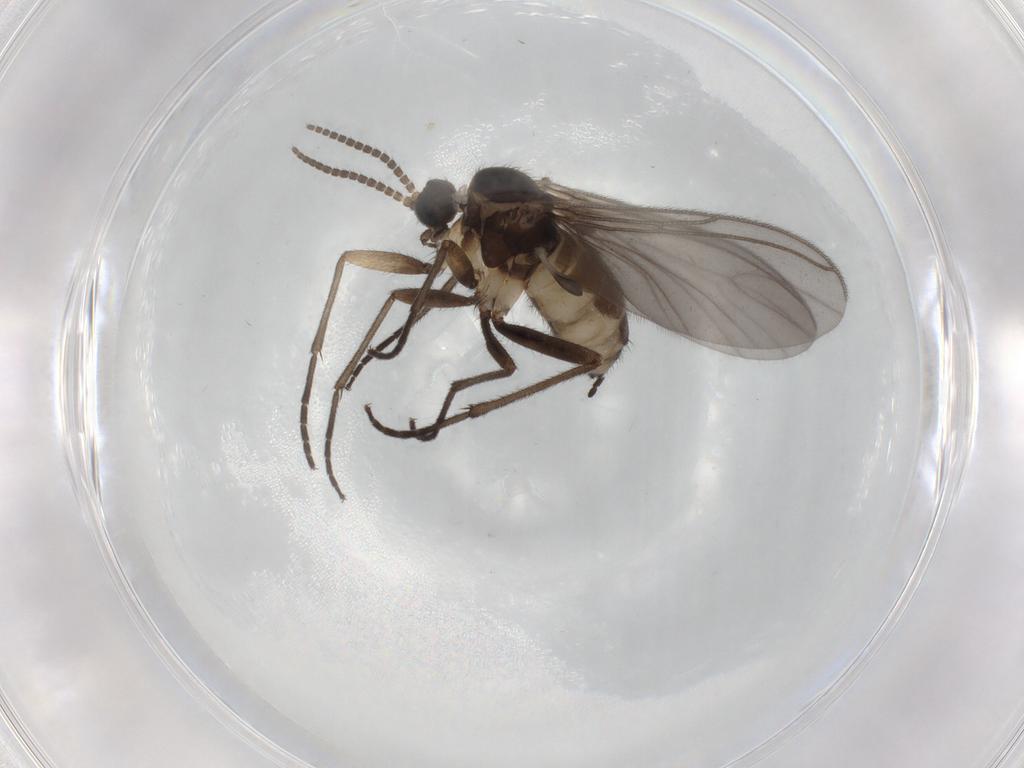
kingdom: Animalia
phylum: Arthropoda
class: Insecta
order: Diptera
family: Sciaridae
